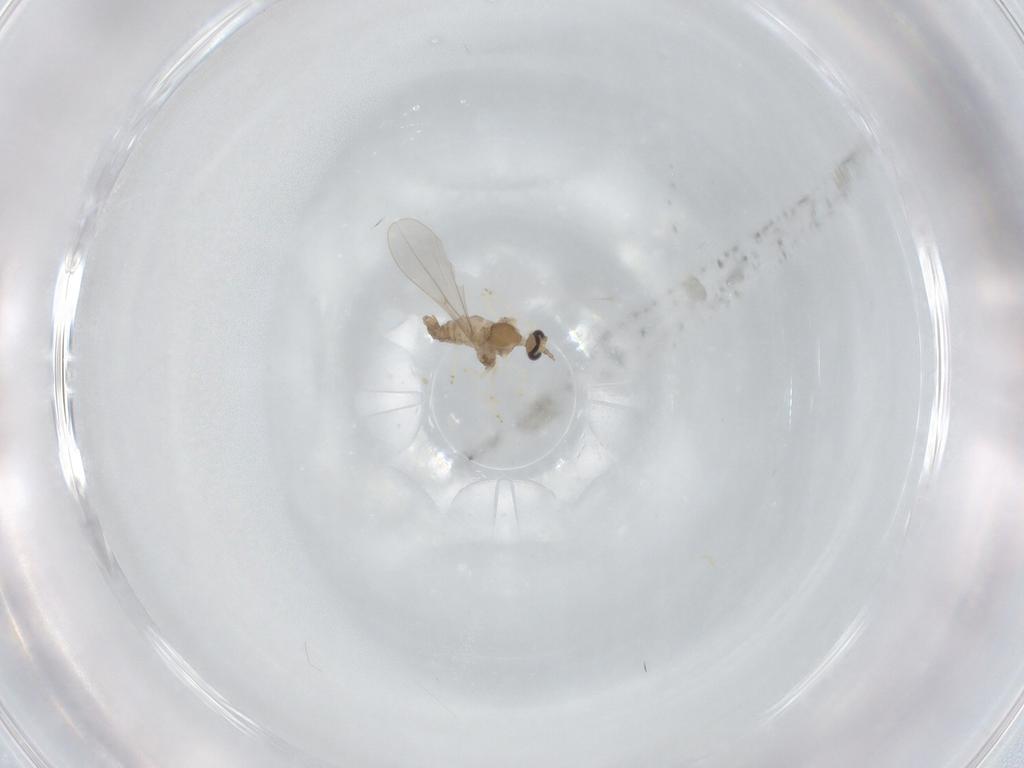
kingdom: Animalia
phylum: Arthropoda
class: Insecta
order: Diptera
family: Cecidomyiidae
